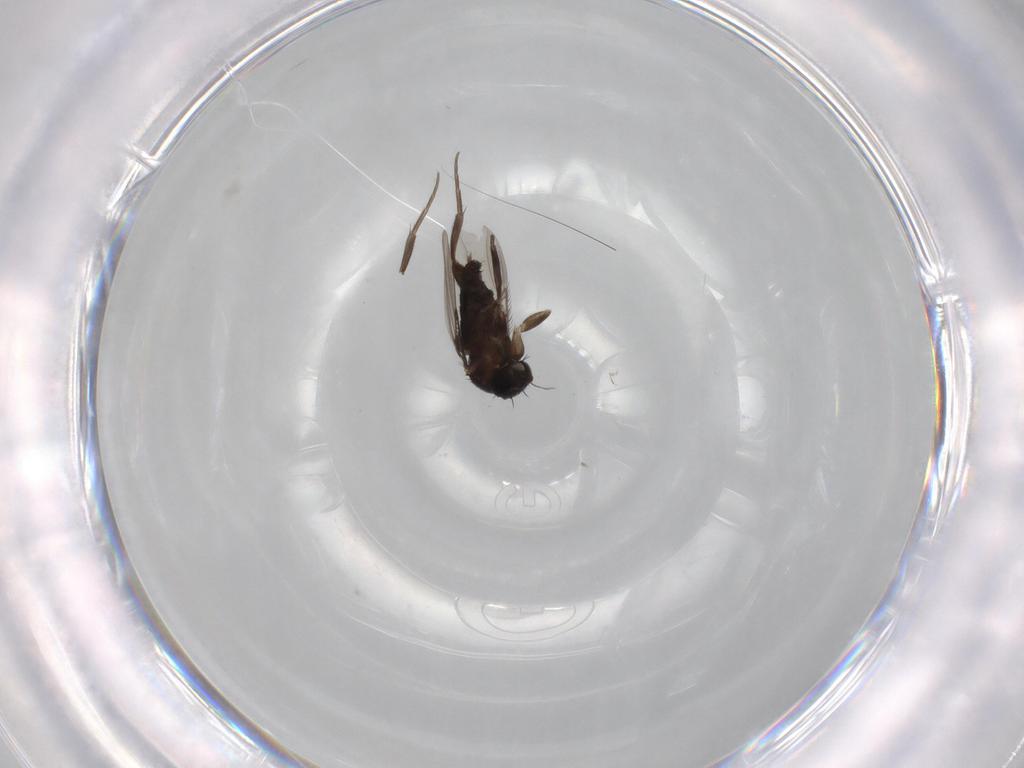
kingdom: Animalia
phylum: Arthropoda
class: Insecta
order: Diptera
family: Phoridae
